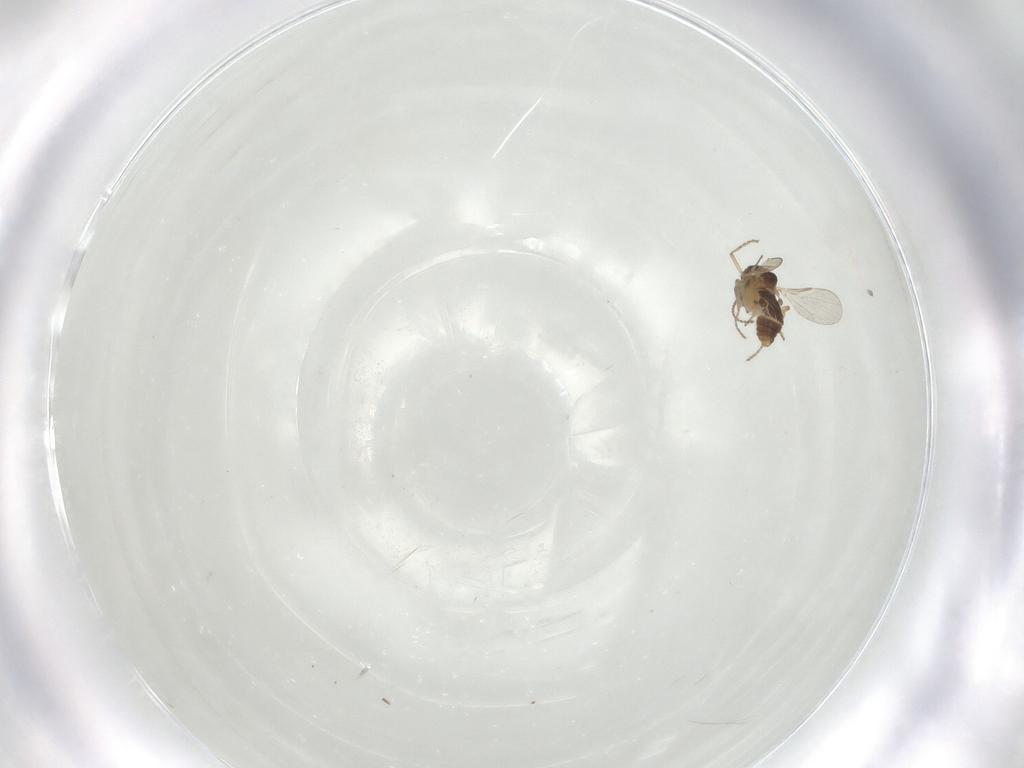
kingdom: Animalia
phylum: Arthropoda
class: Insecta
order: Diptera
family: Ceratopogonidae
